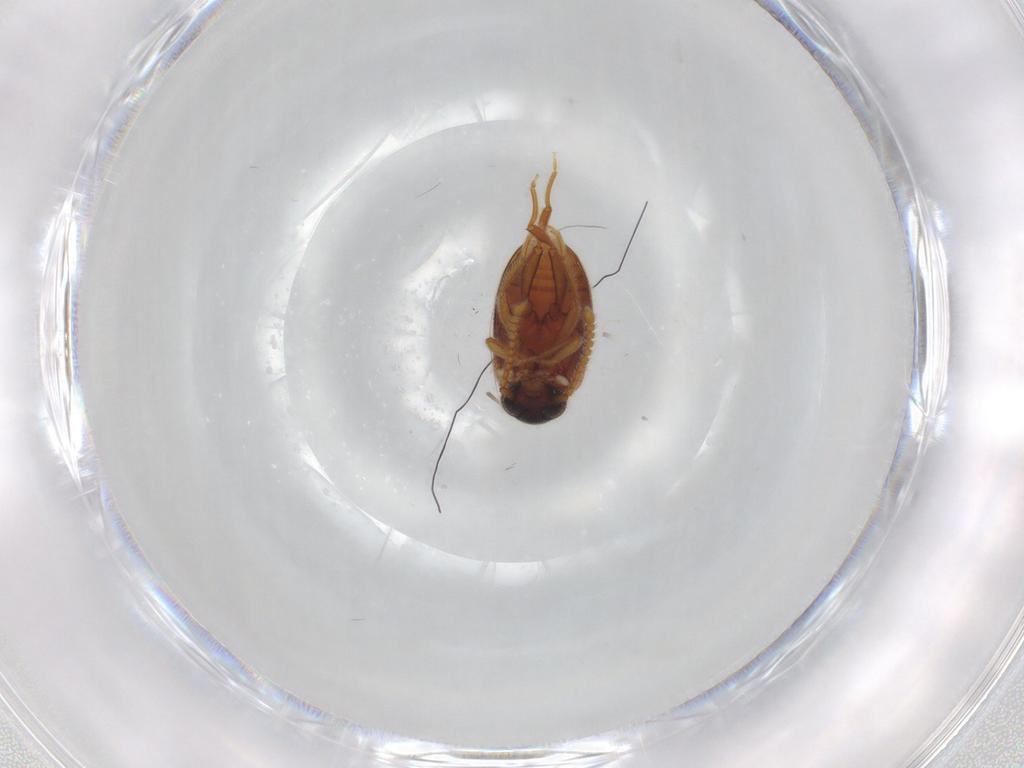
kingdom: Animalia
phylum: Arthropoda
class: Insecta
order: Coleoptera
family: Aderidae
